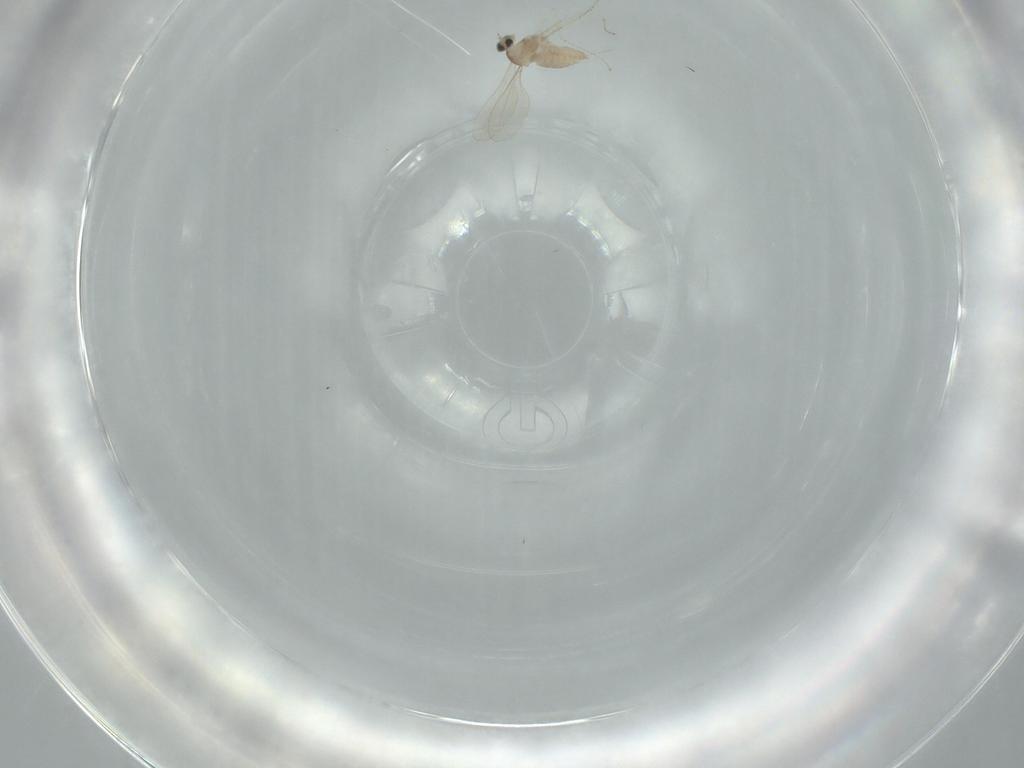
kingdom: Animalia
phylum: Arthropoda
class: Insecta
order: Diptera
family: Cecidomyiidae
